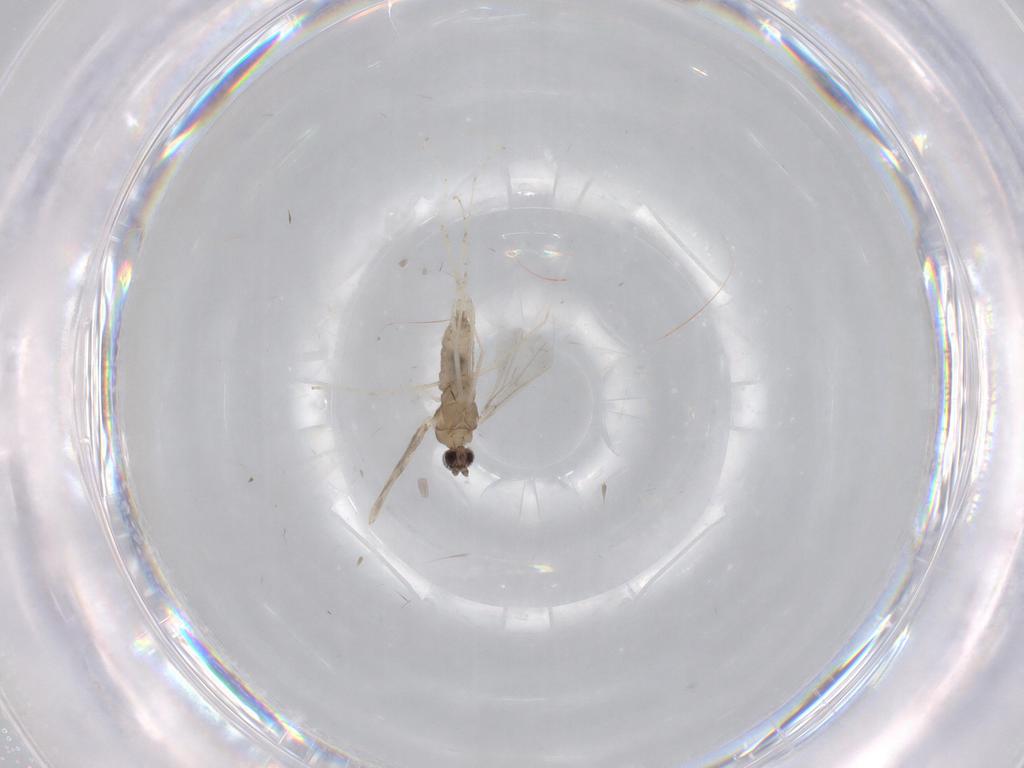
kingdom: Animalia
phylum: Arthropoda
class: Insecta
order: Diptera
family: Cecidomyiidae
